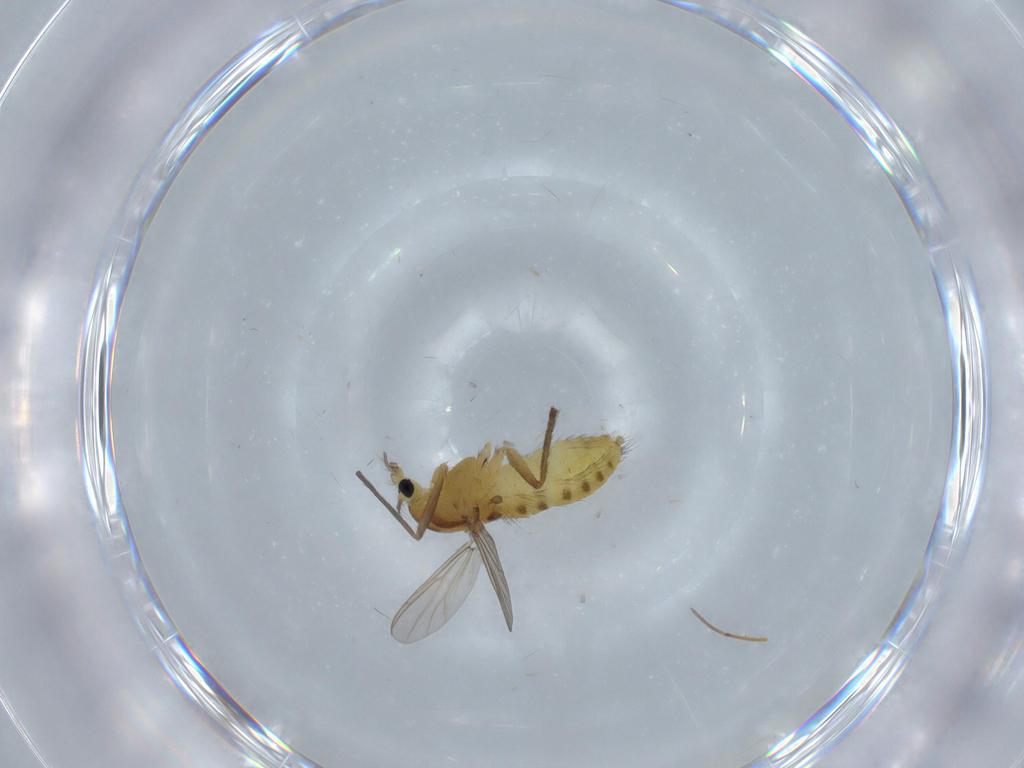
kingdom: Animalia
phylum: Arthropoda
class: Insecta
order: Diptera
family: Chironomidae
